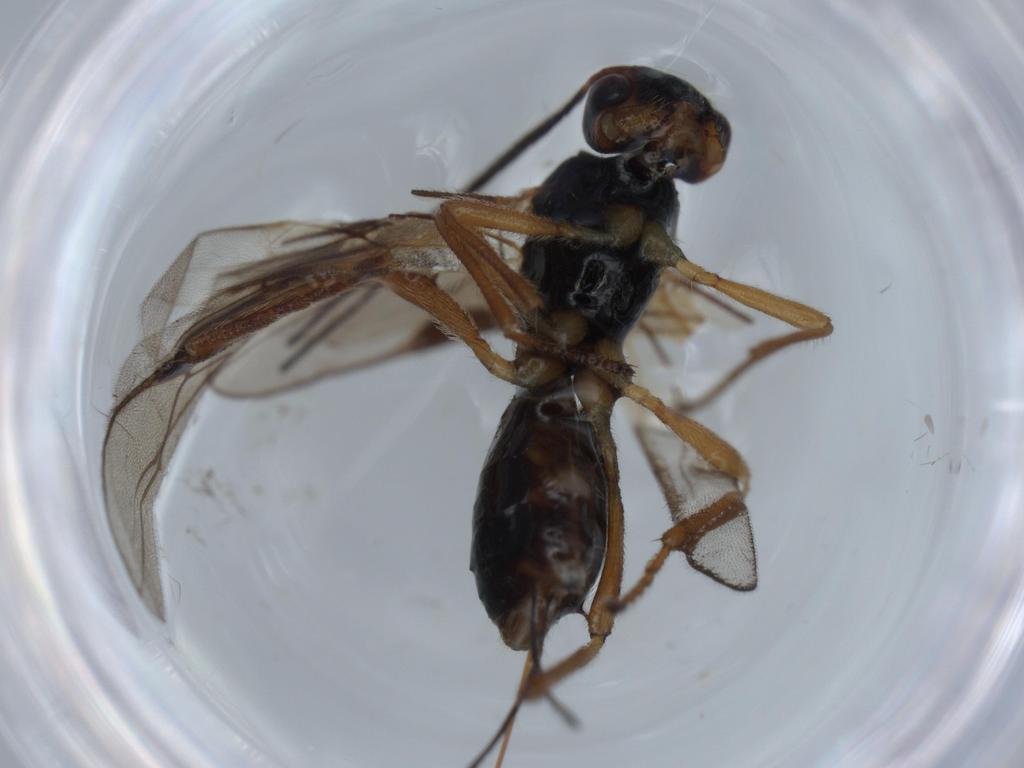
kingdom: Animalia
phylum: Arthropoda
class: Insecta
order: Hymenoptera
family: Braconidae
